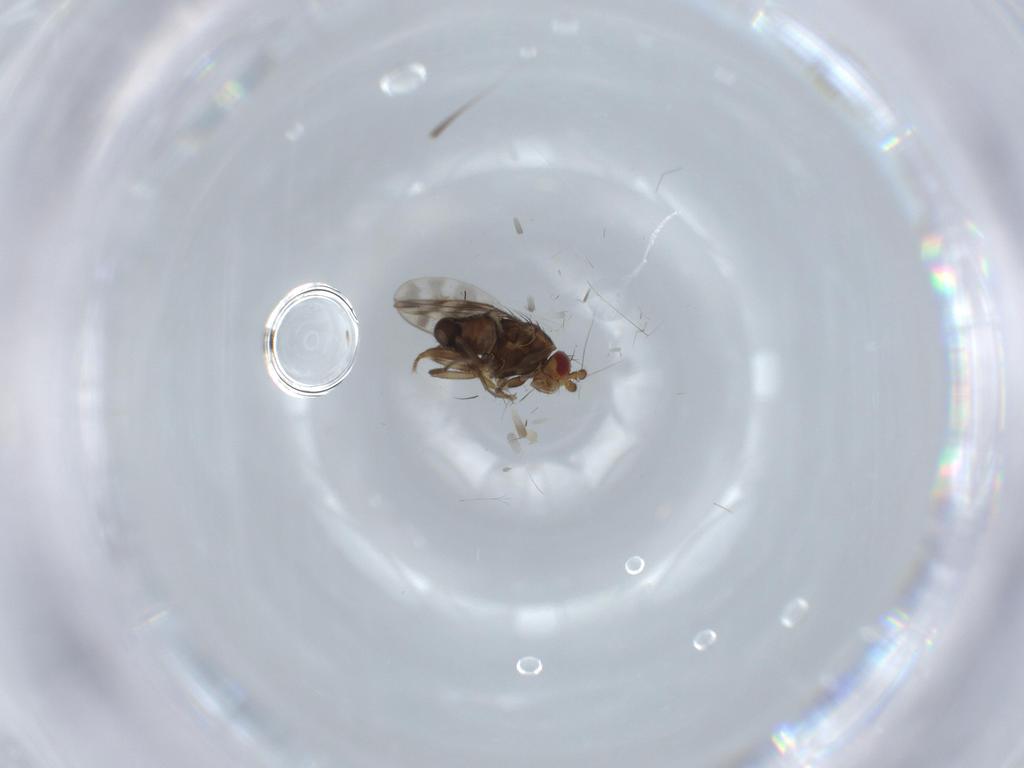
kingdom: Animalia
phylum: Arthropoda
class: Insecta
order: Diptera
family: Sphaeroceridae
